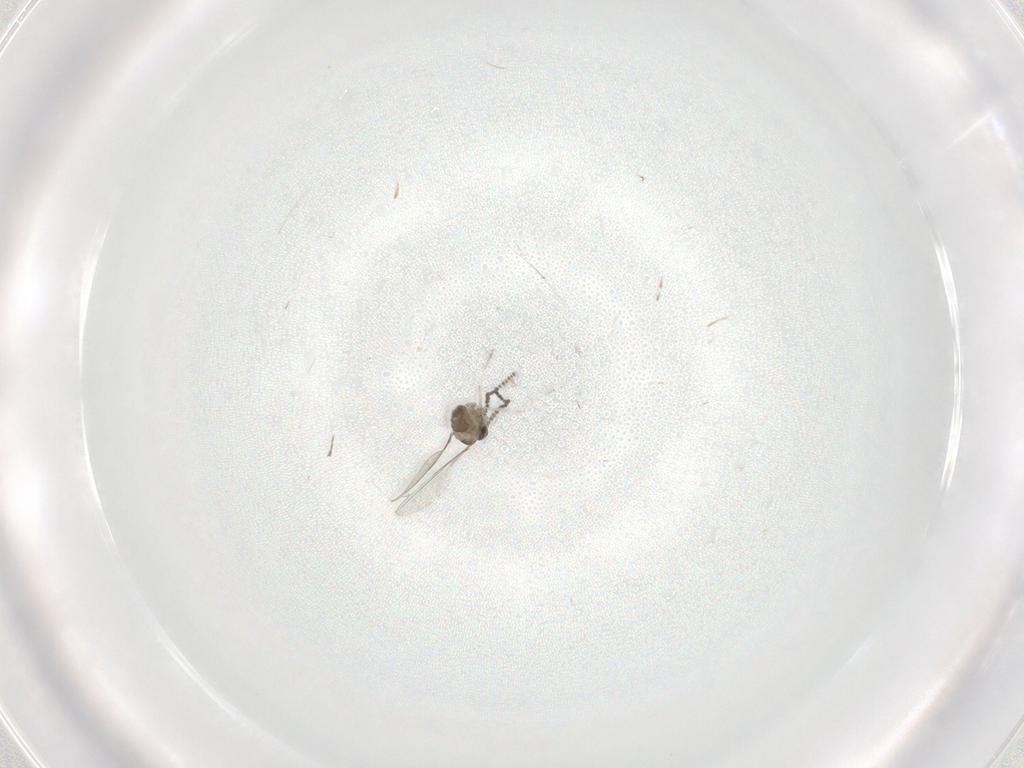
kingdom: Animalia
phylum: Arthropoda
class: Insecta
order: Diptera
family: Cecidomyiidae
